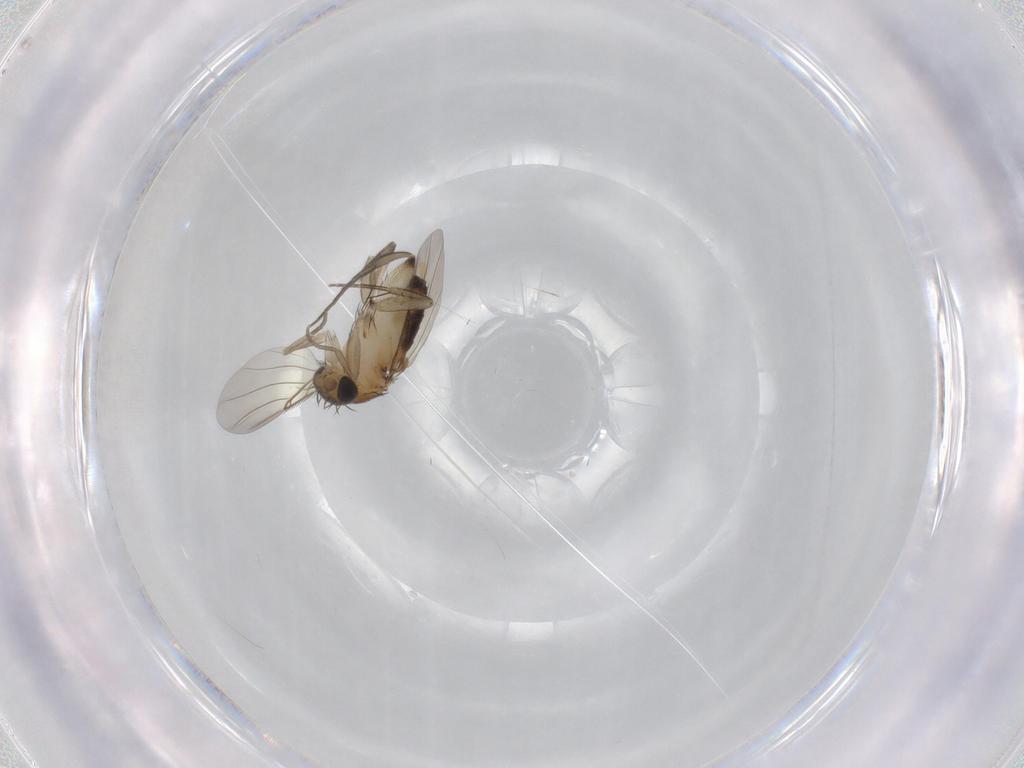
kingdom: Animalia
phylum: Arthropoda
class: Insecta
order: Diptera
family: Phoridae
